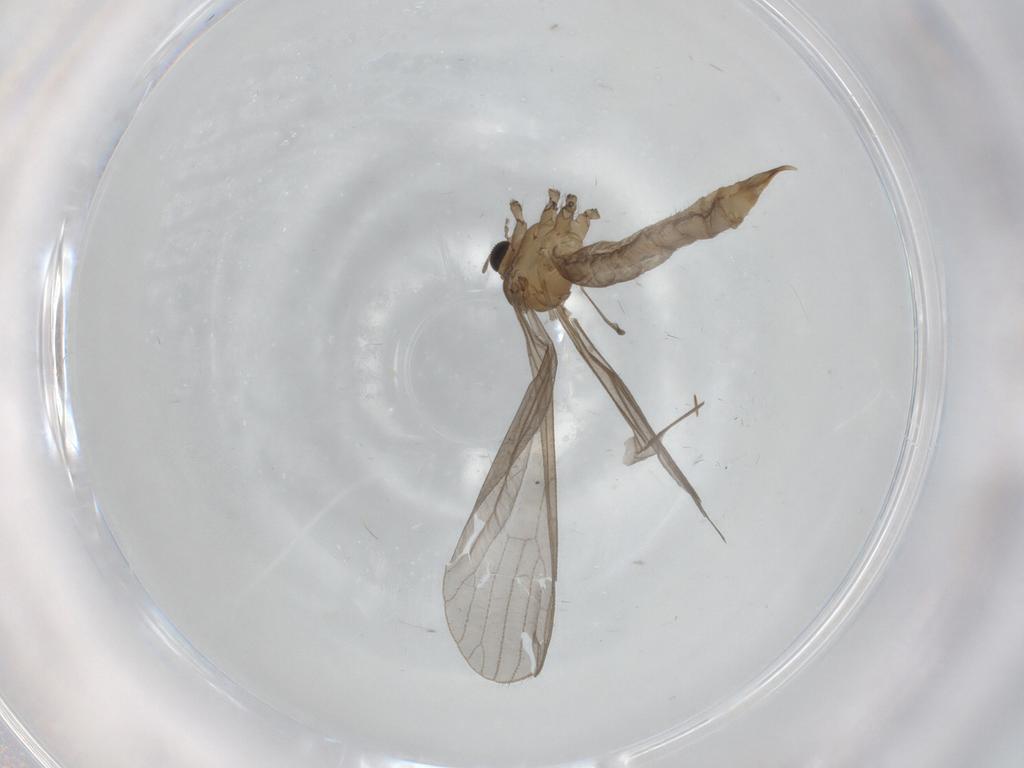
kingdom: Animalia
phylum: Arthropoda
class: Insecta
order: Diptera
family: Limoniidae
